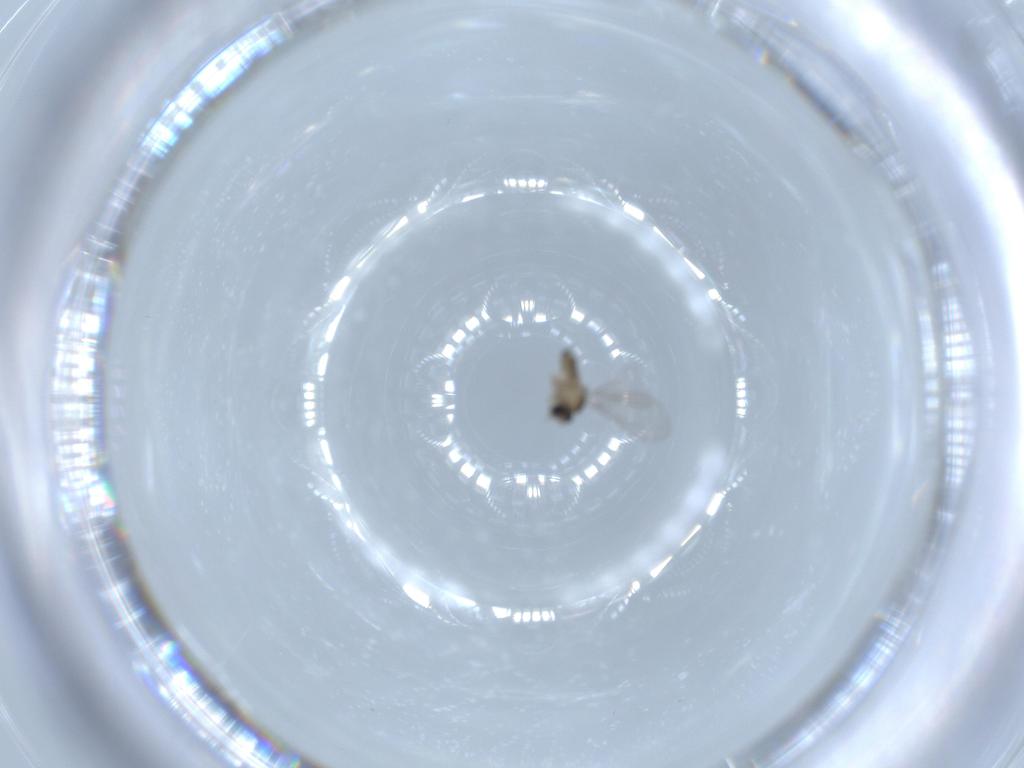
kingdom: Animalia
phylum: Arthropoda
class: Insecta
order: Diptera
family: Cecidomyiidae
